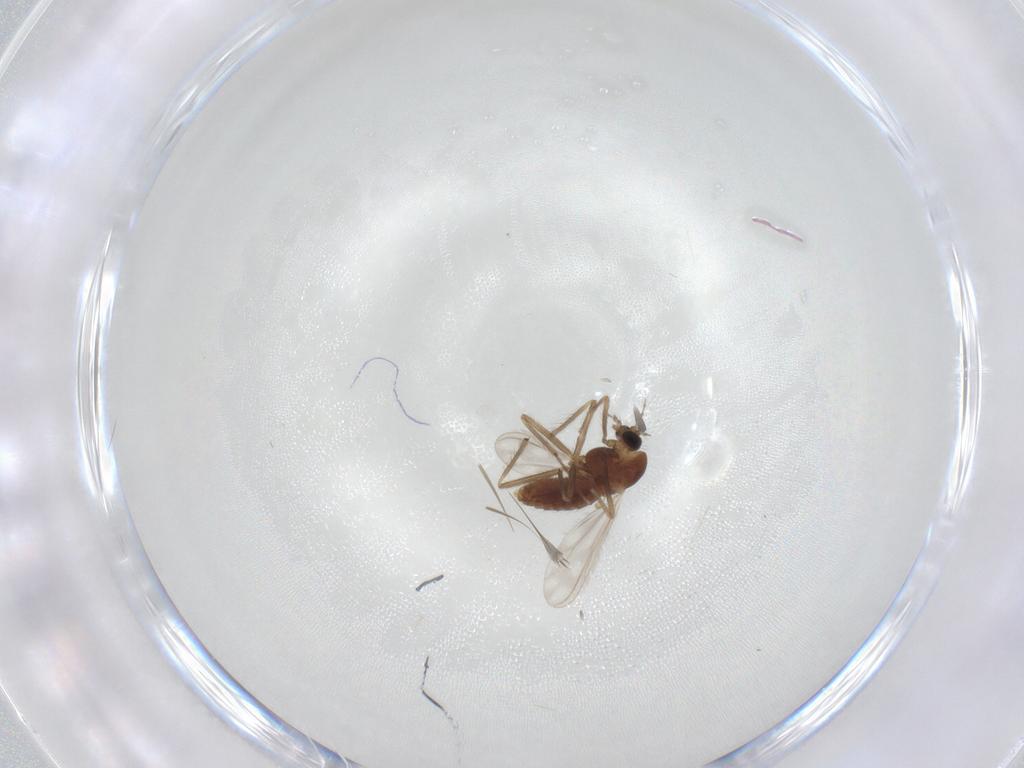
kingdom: Animalia
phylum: Arthropoda
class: Insecta
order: Diptera
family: Chironomidae
